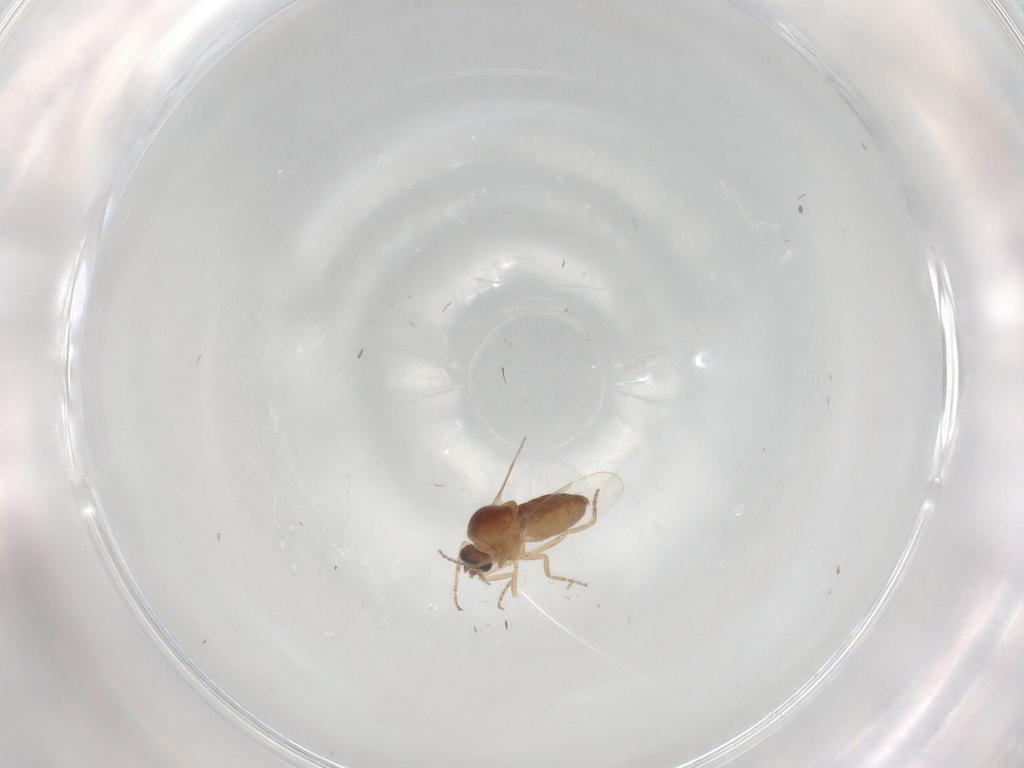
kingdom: Animalia
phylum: Arthropoda
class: Insecta
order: Diptera
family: Ceratopogonidae
